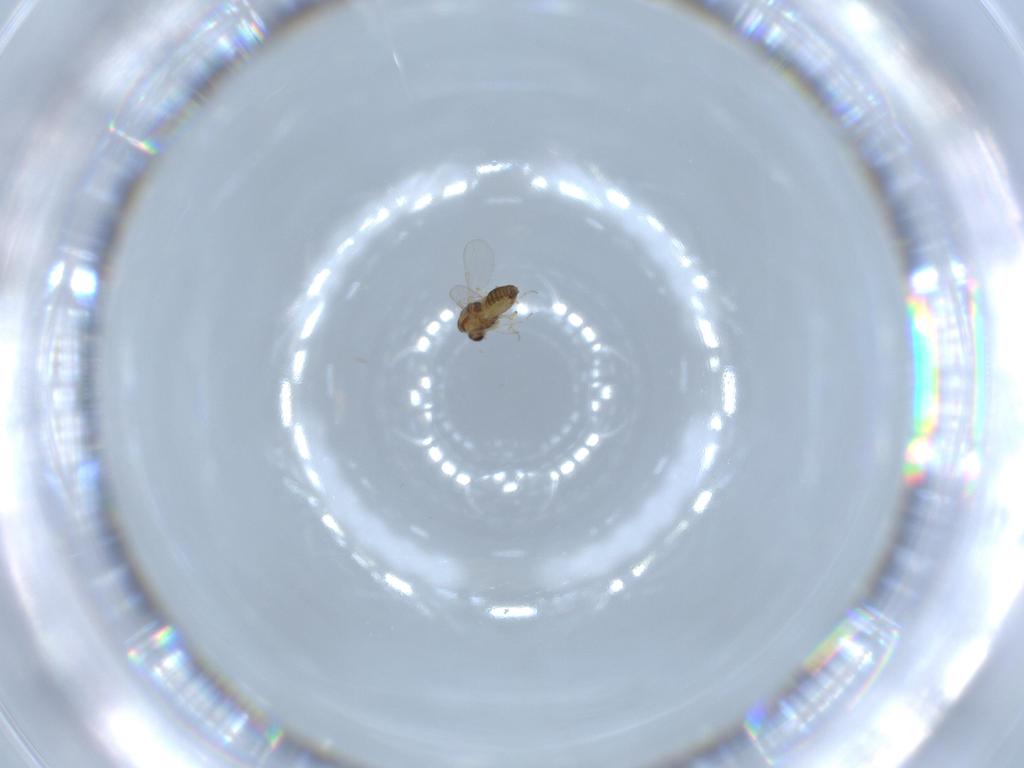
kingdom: Animalia
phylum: Arthropoda
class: Insecta
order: Diptera
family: Chironomidae
